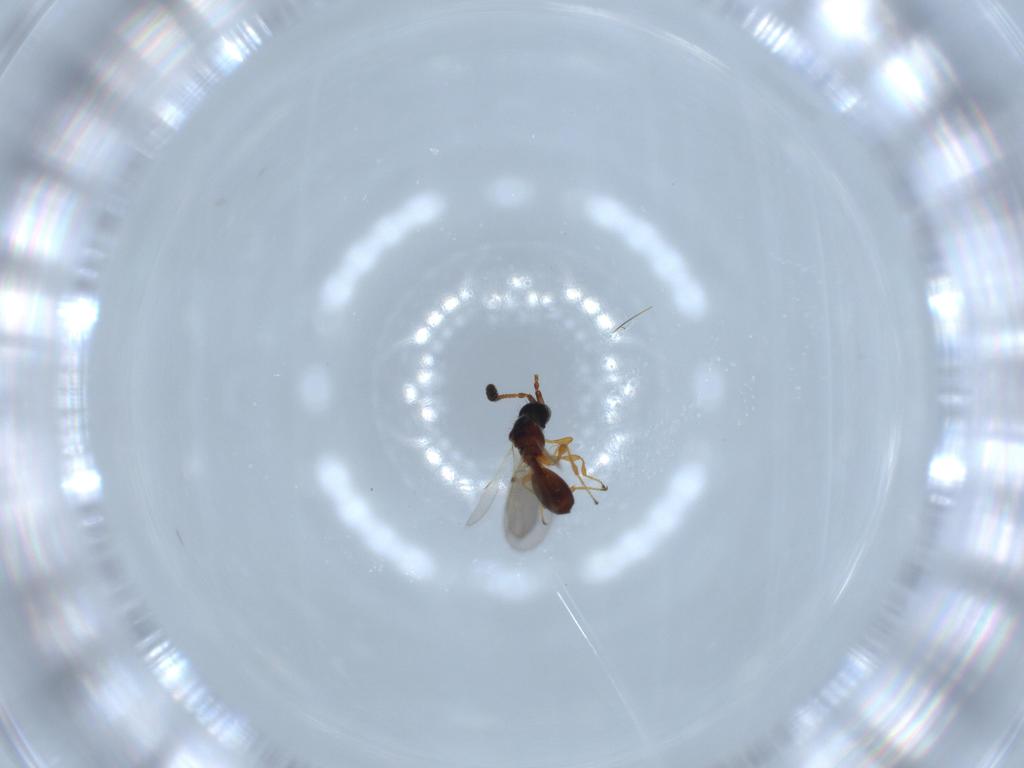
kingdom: Animalia
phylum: Arthropoda
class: Insecta
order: Hymenoptera
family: Diapriidae
